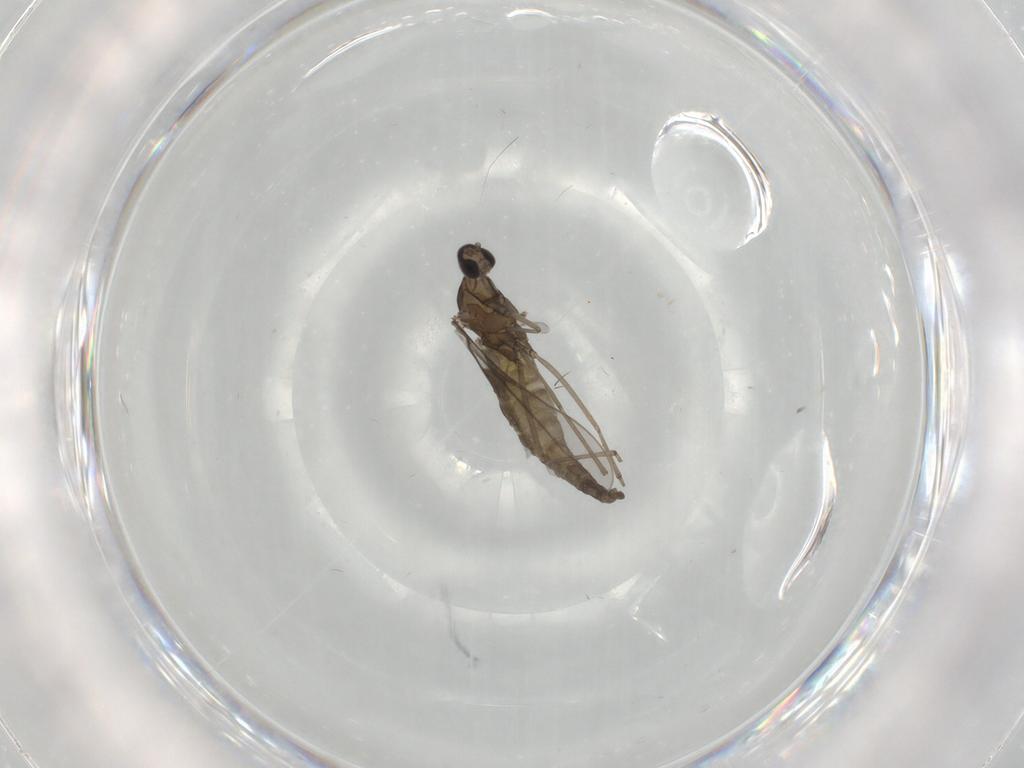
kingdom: Animalia
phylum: Arthropoda
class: Insecta
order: Diptera
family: Cecidomyiidae
